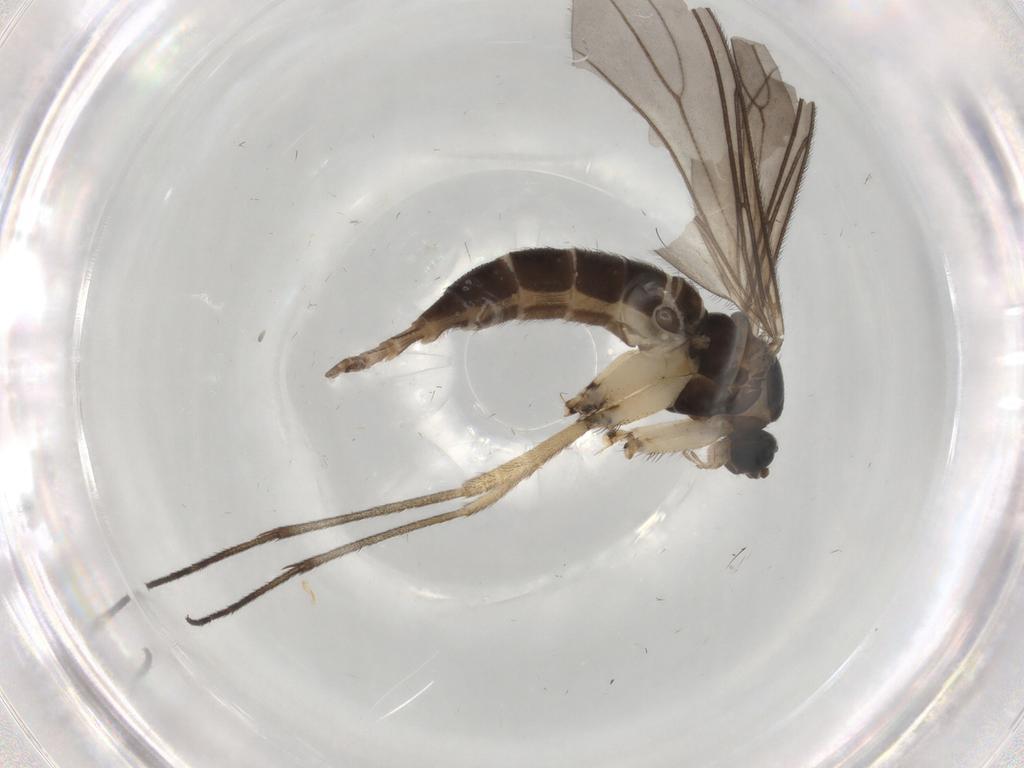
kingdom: Animalia
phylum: Arthropoda
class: Insecta
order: Diptera
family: Sciaridae
